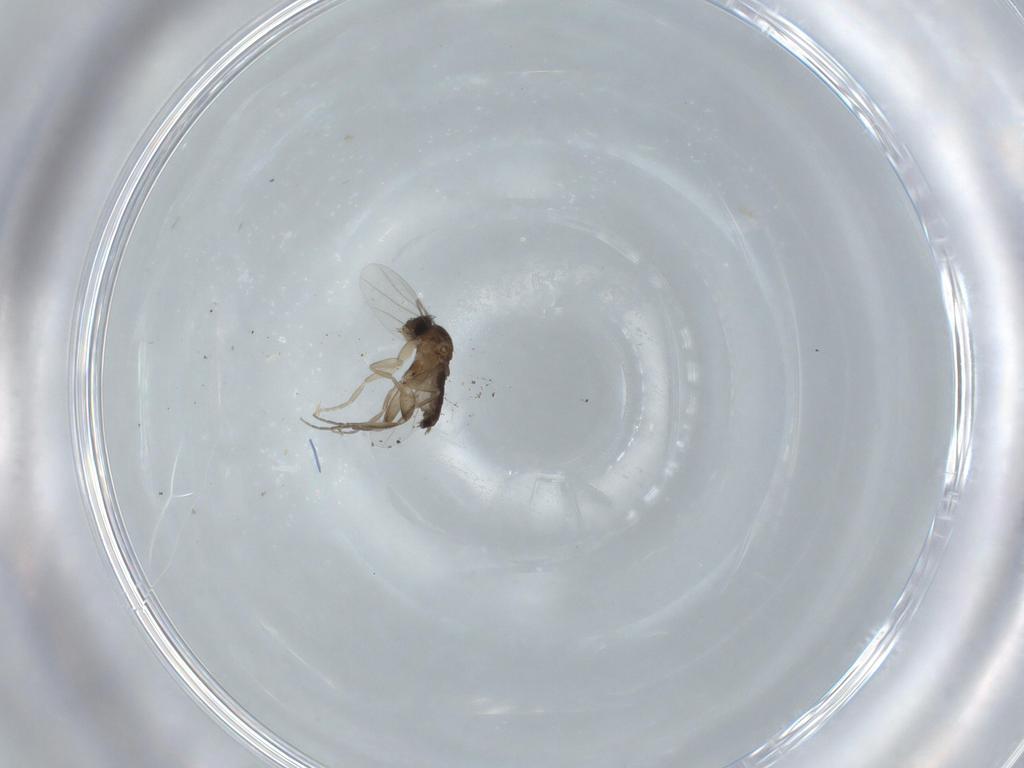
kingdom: Animalia
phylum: Arthropoda
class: Insecta
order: Diptera
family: Phoridae
